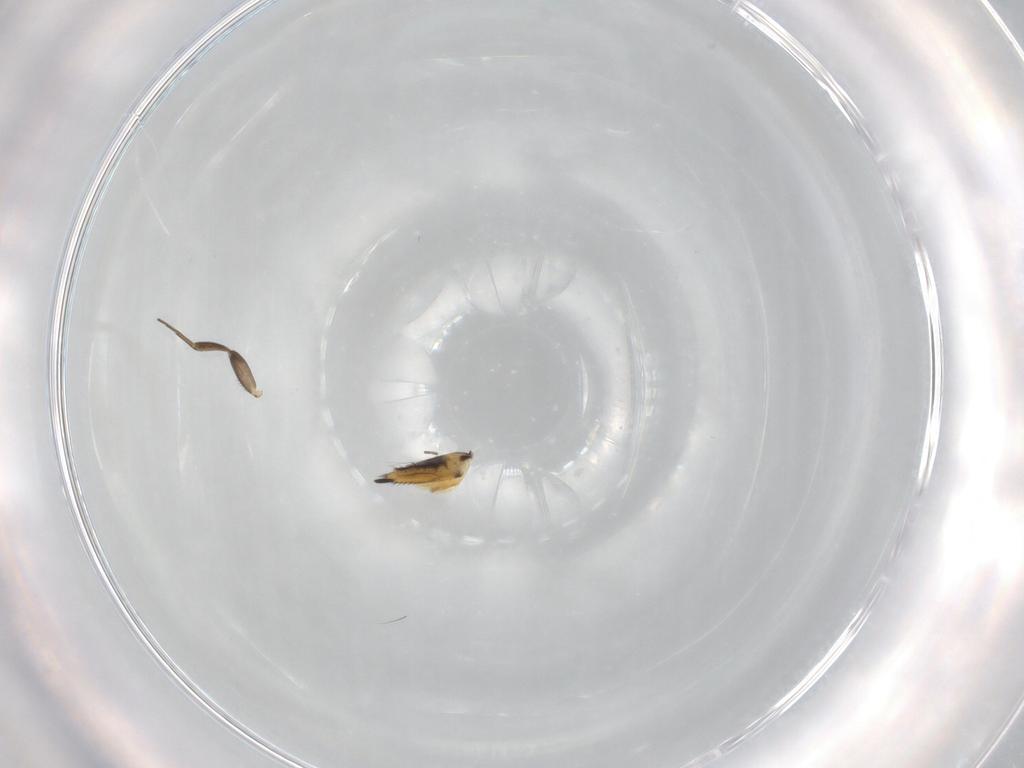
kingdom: Animalia
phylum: Arthropoda
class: Insecta
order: Diptera
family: Phoridae
